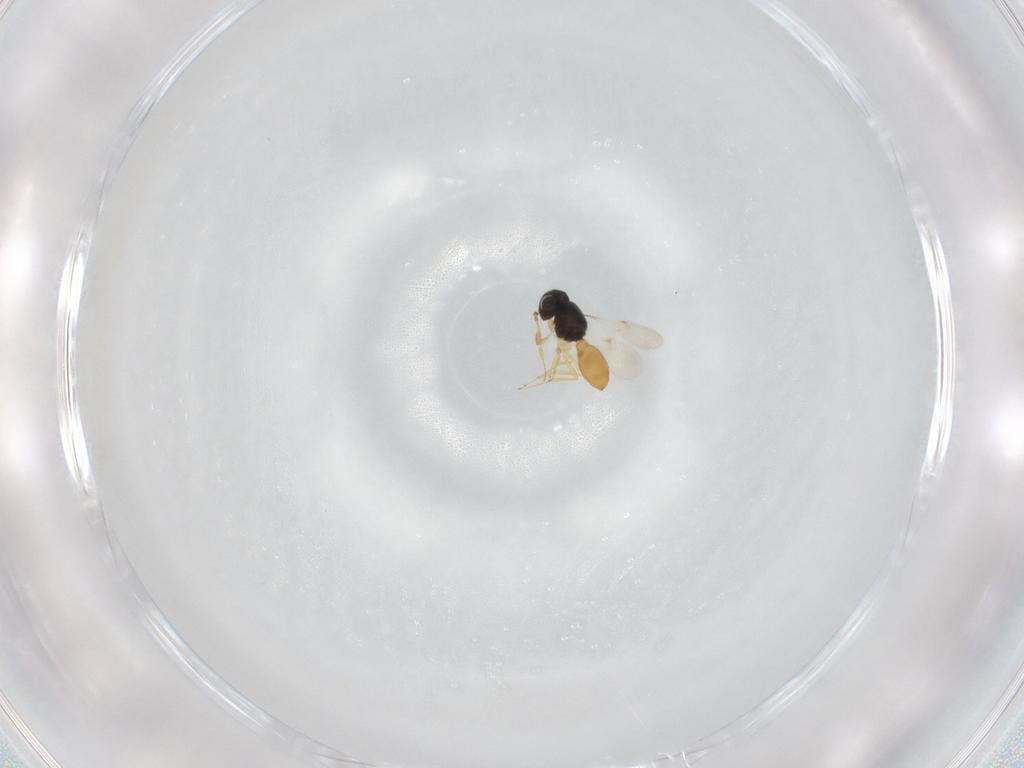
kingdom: Animalia
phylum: Arthropoda
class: Insecta
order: Hymenoptera
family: Scelionidae
